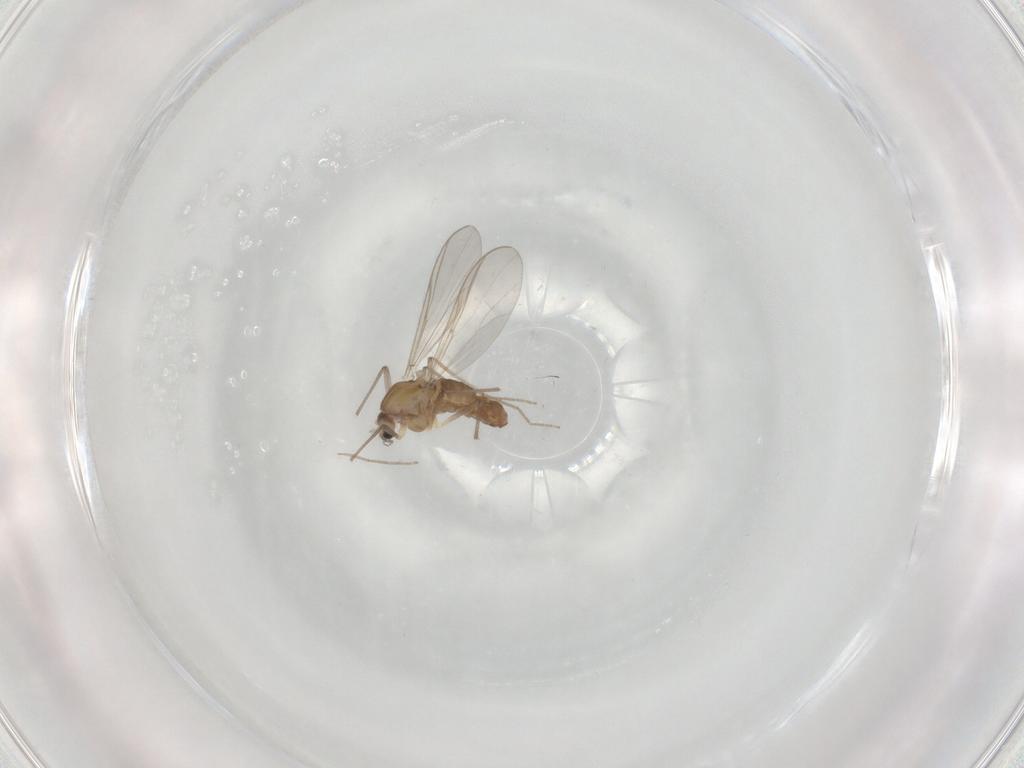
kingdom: Animalia
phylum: Arthropoda
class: Insecta
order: Diptera
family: Chironomidae
